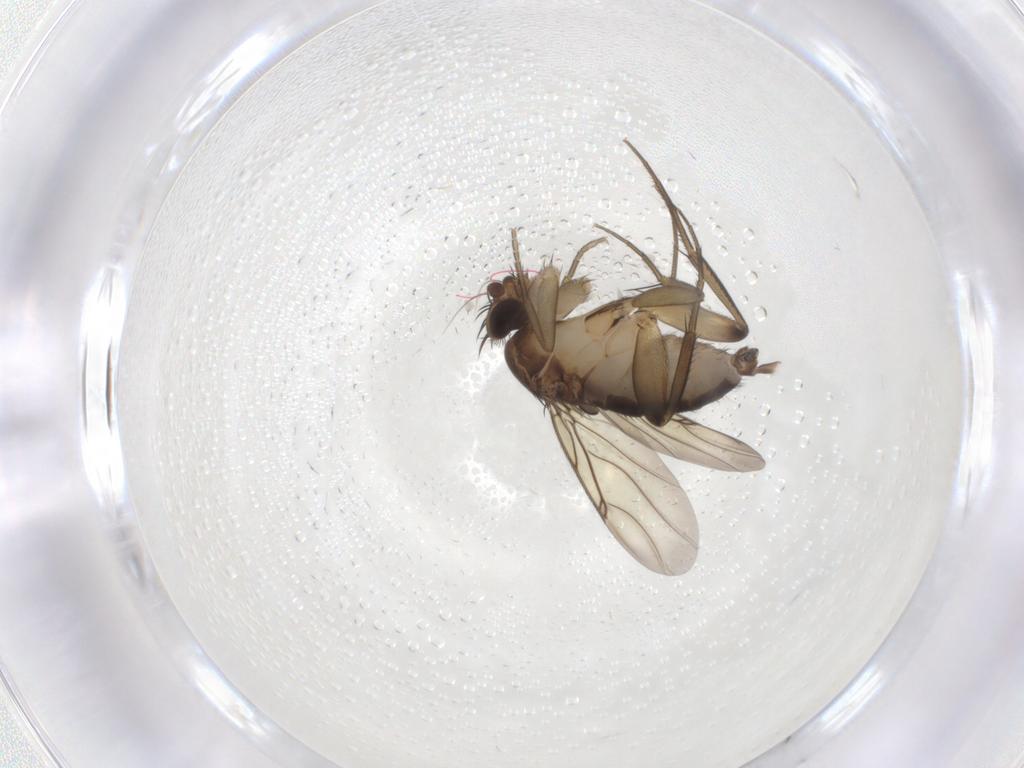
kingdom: Animalia
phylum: Arthropoda
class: Insecta
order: Diptera
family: Phoridae
